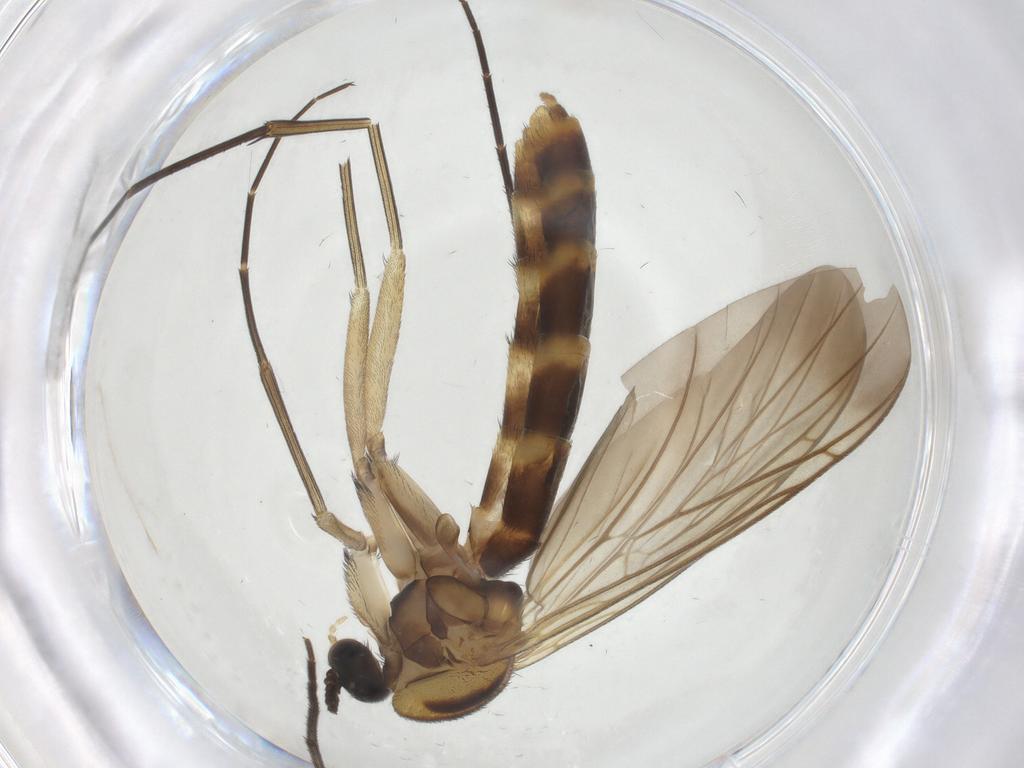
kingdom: Animalia
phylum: Arthropoda
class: Insecta
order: Diptera
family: Keroplatidae
